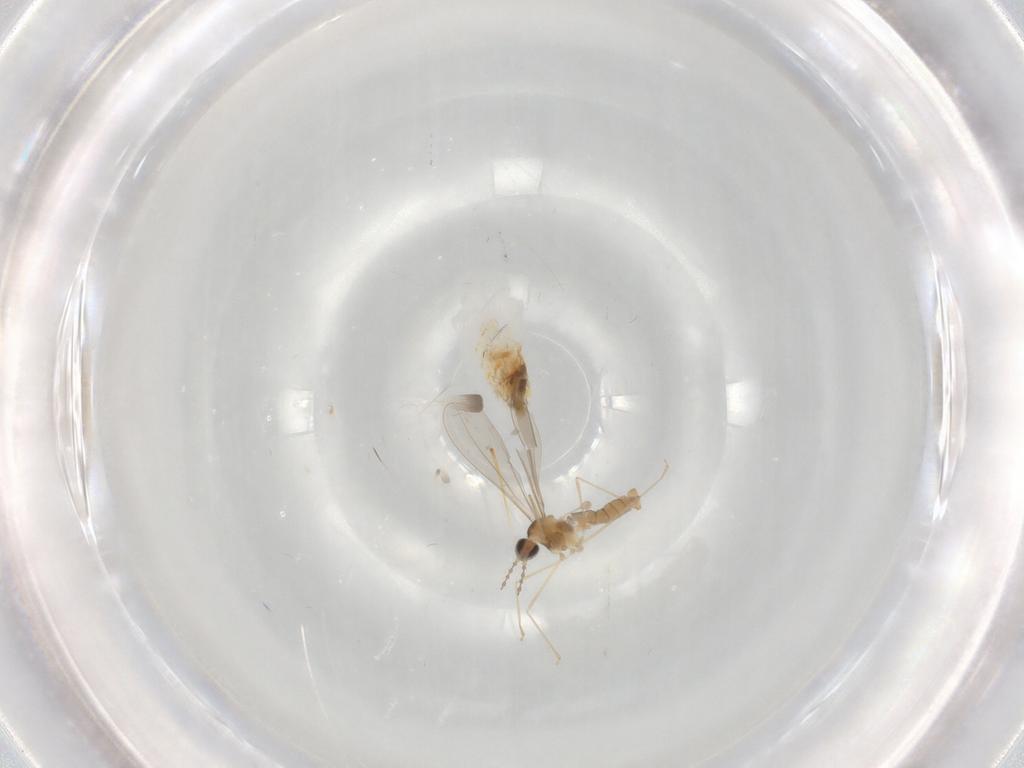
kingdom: Animalia
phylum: Arthropoda
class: Insecta
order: Diptera
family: Cecidomyiidae
